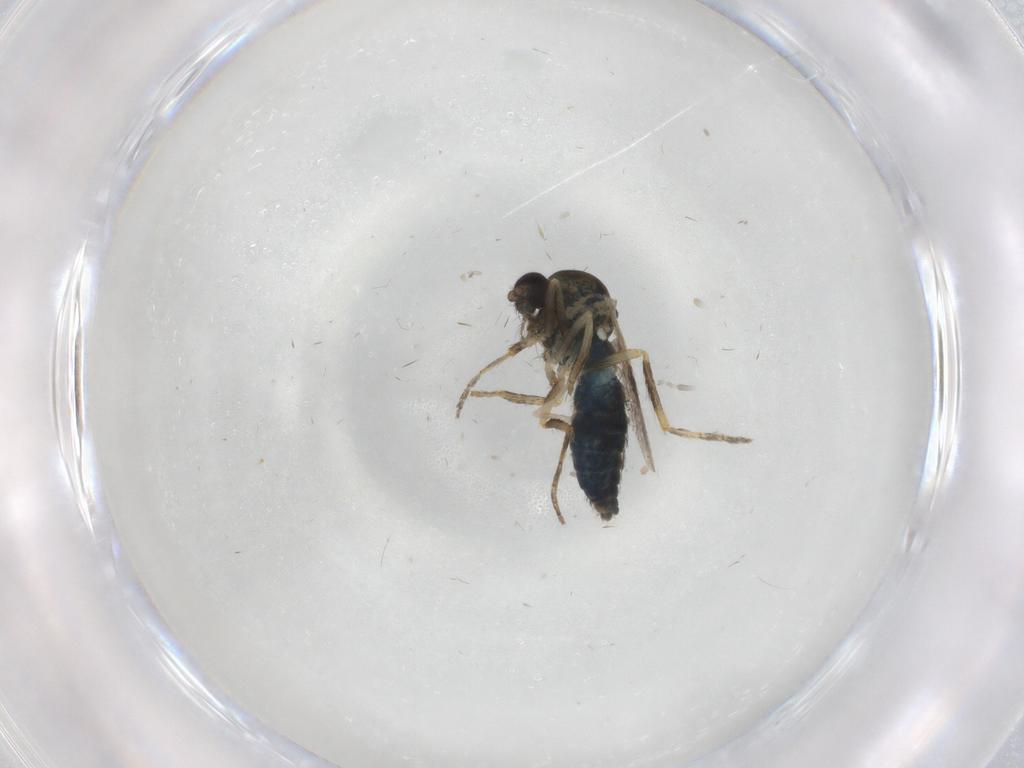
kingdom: Animalia
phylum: Arthropoda
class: Insecta
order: Diptera
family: Ceratopogonidae
